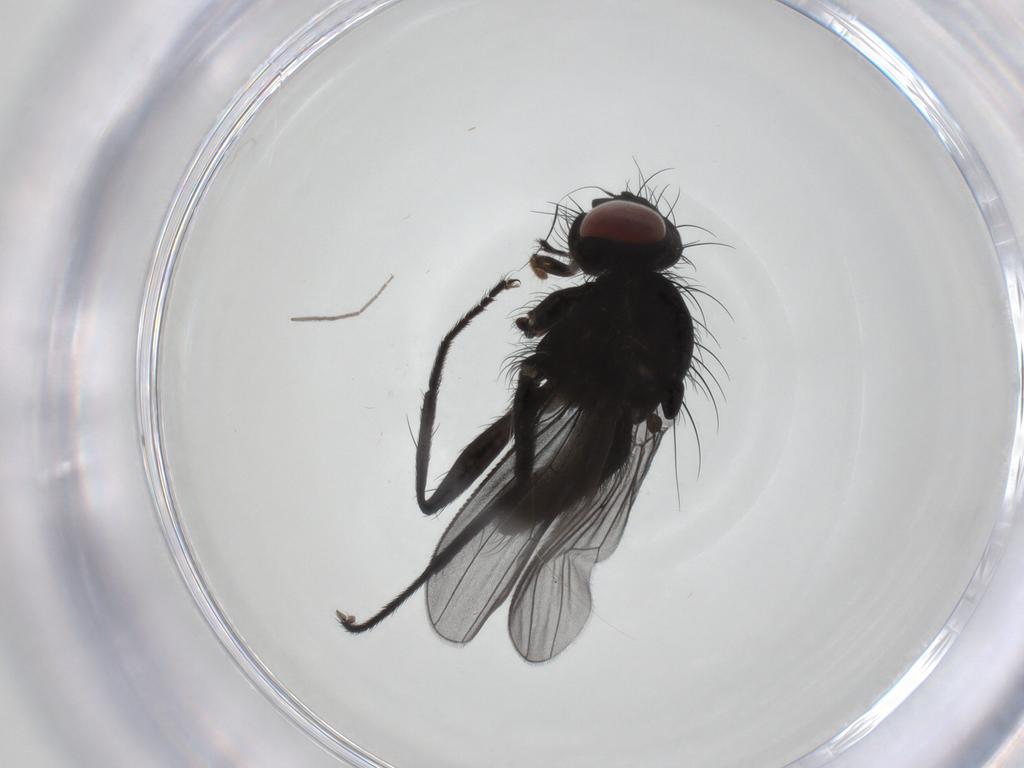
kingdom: Animalia
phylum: Arthropoda
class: Insecta
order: Diptera
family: Muscidae
